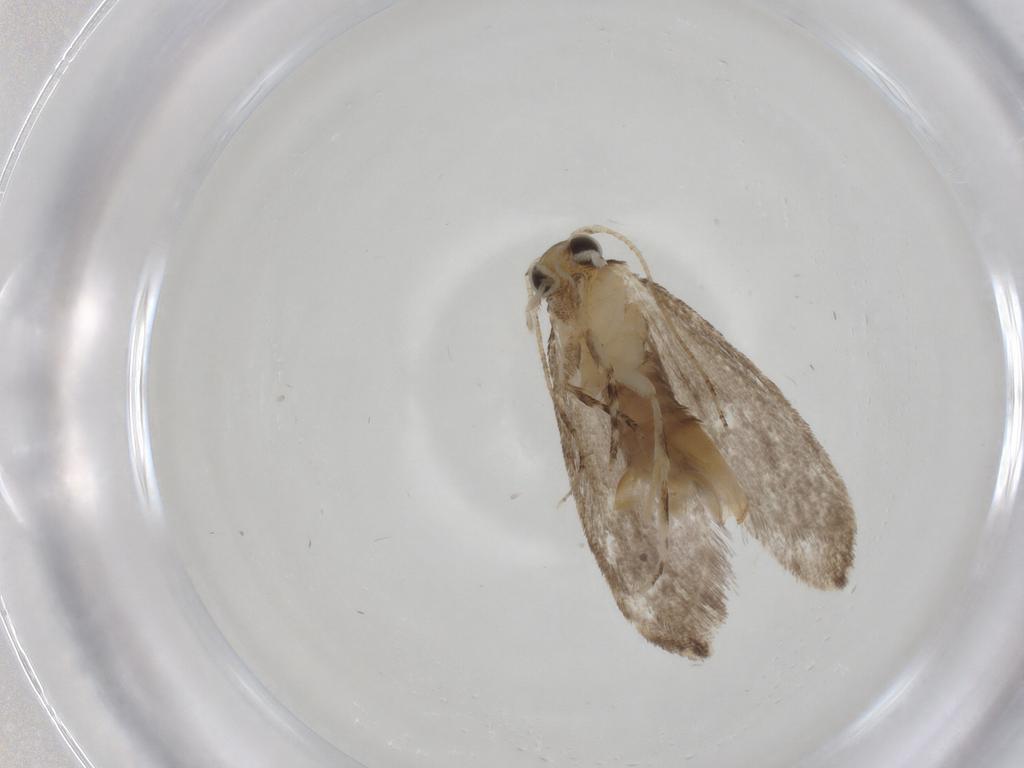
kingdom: Animalia
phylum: Arthropoda
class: Insecta
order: Lepidoptera
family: Tineidae
